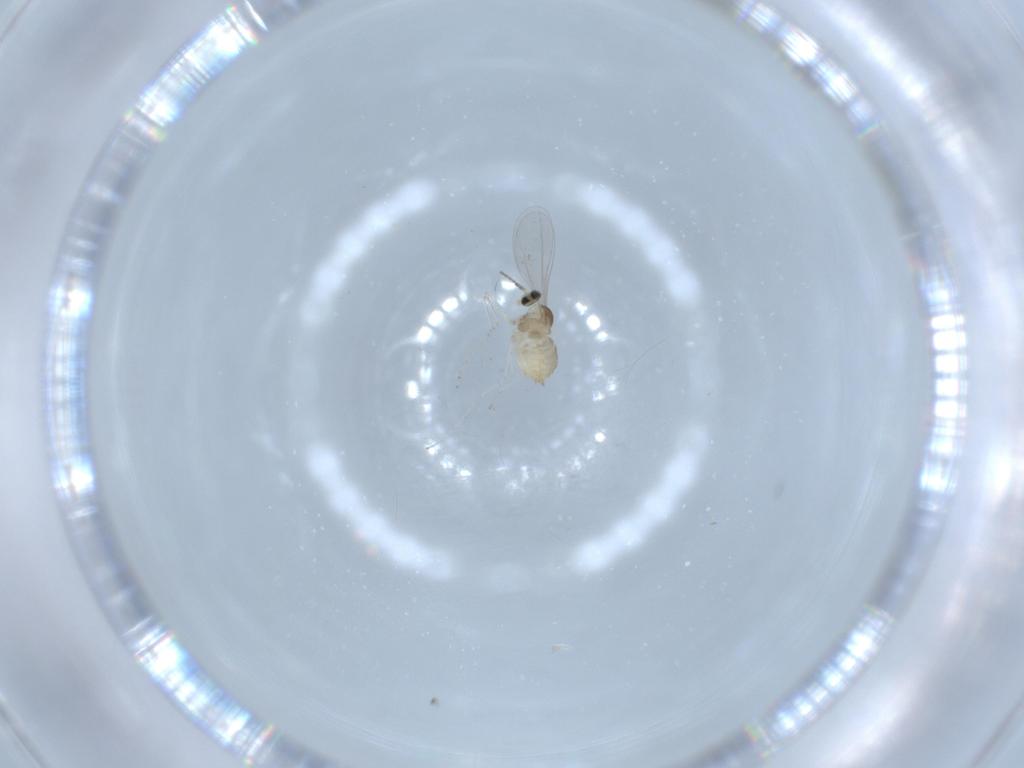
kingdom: Animalia
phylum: Arthropoda
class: Insecta
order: Diptera
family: Cecidomyiidae
